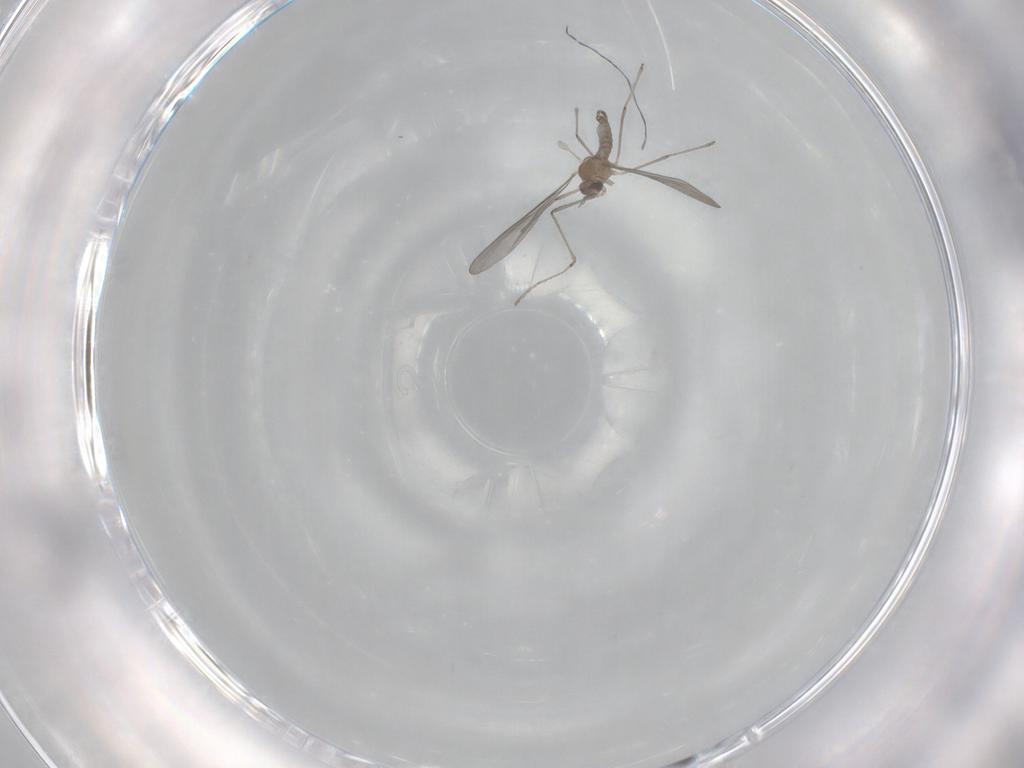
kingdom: Animalia
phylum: Arthropoda
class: Insecta
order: Diptera
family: Cecidomyiidae
